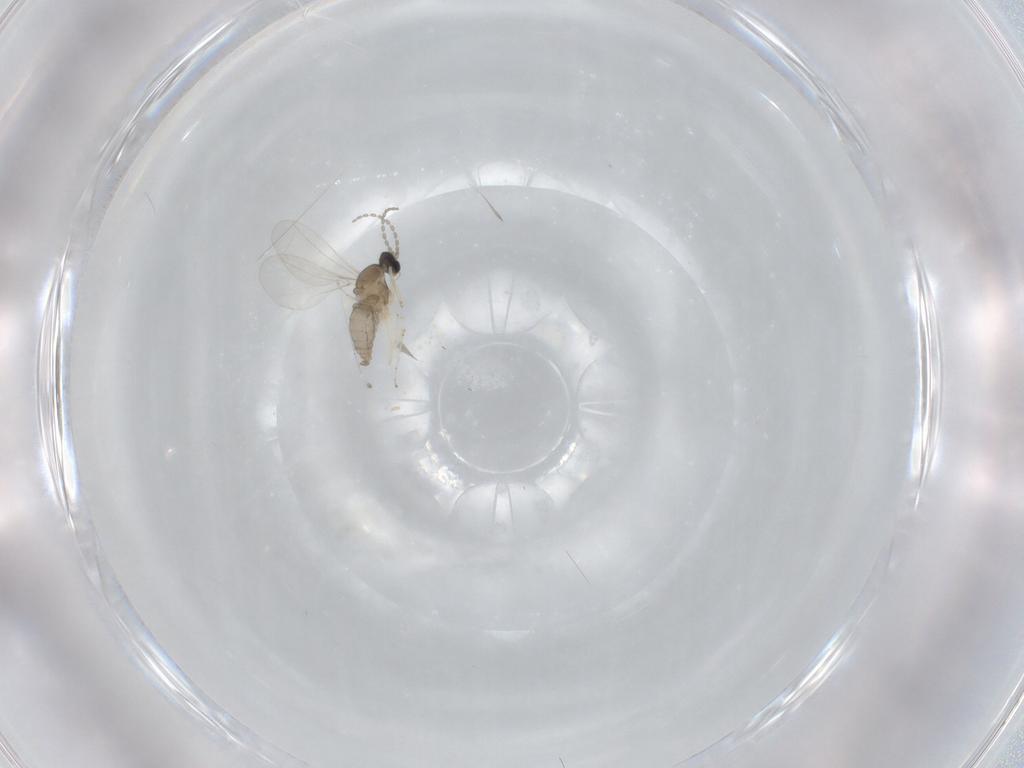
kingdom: Animalia
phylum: Arthropoda
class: Insecta
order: Diptera
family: Cecidomyiidae
